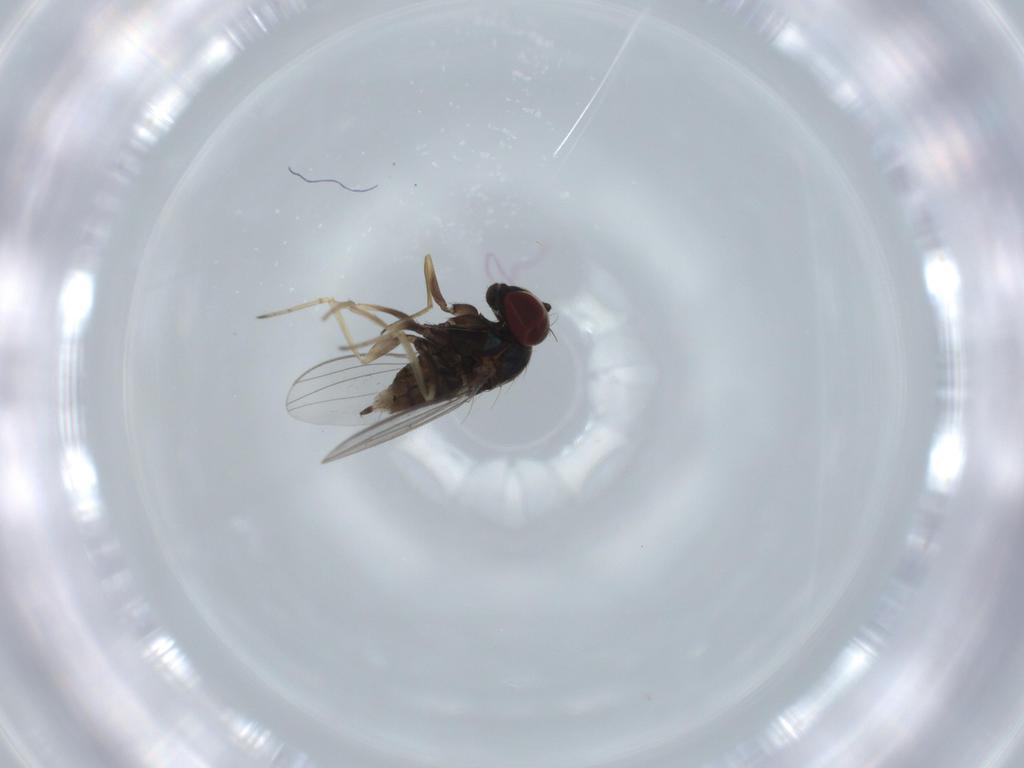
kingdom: Animalia
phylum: Arthropoda
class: Insecta
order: Diptera
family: Dolichopodidae
